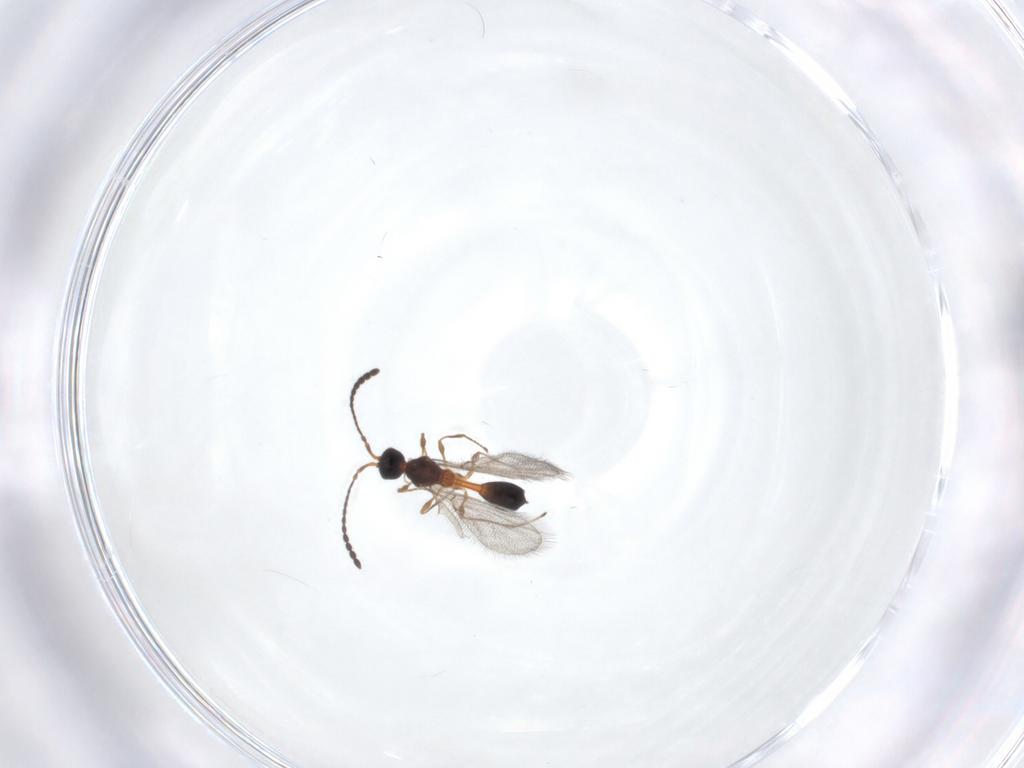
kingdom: Animalia
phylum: Arthropoda
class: Insecta
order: Hymenoptera
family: Diapriidae
